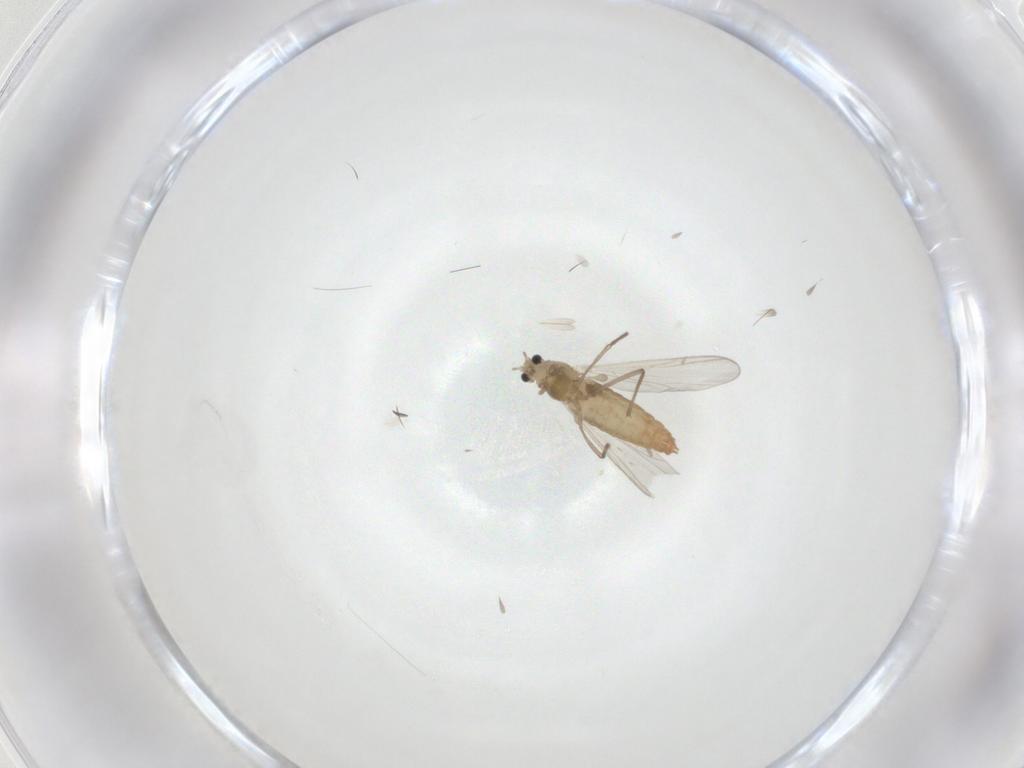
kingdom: Animalia
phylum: Arthropoda
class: Insecta
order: Diptera
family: Chironomidae
